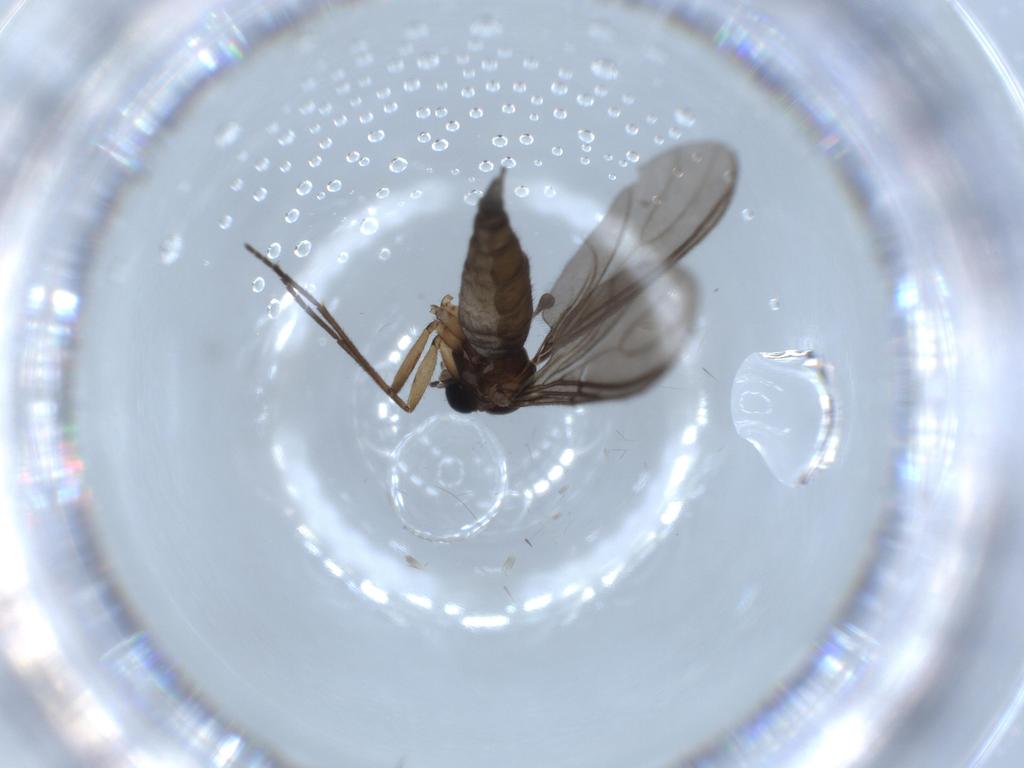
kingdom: Animalia
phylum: Arthropoda
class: Insecta
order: Diptera
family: Sciaridae
